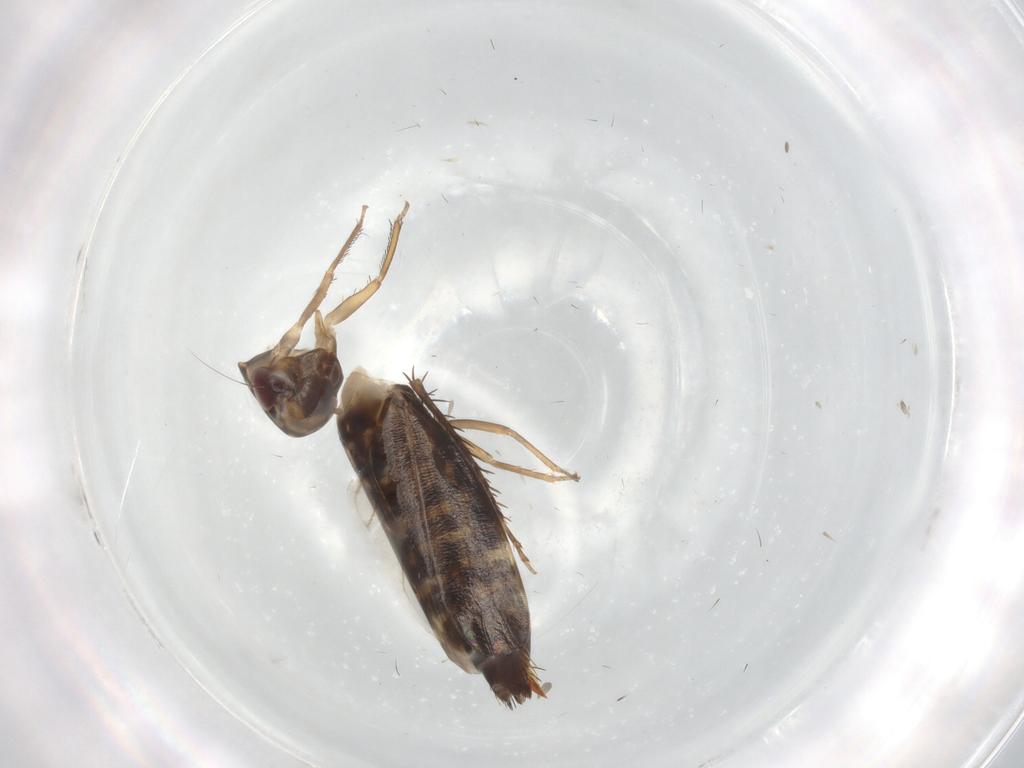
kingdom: Animalia
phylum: Arthropoda
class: Insecta
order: Hemiptera
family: Cicadellidae
